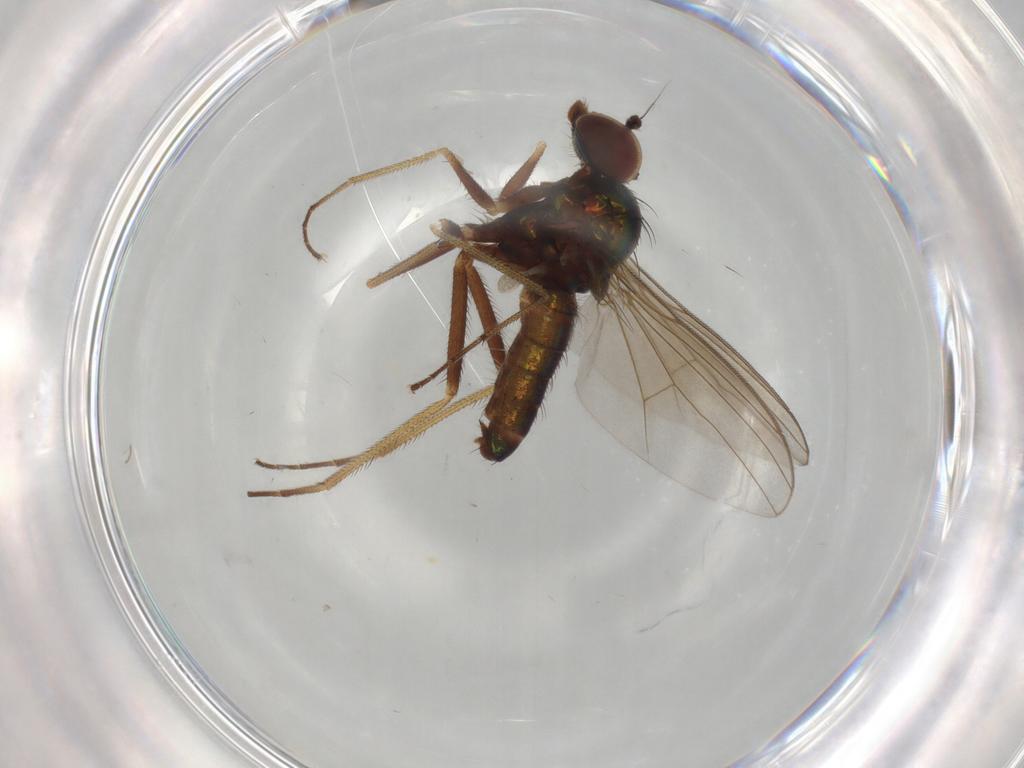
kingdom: Animalia
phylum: Arthropoda
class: Insecta
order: Diptera
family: Dolichopodidae
